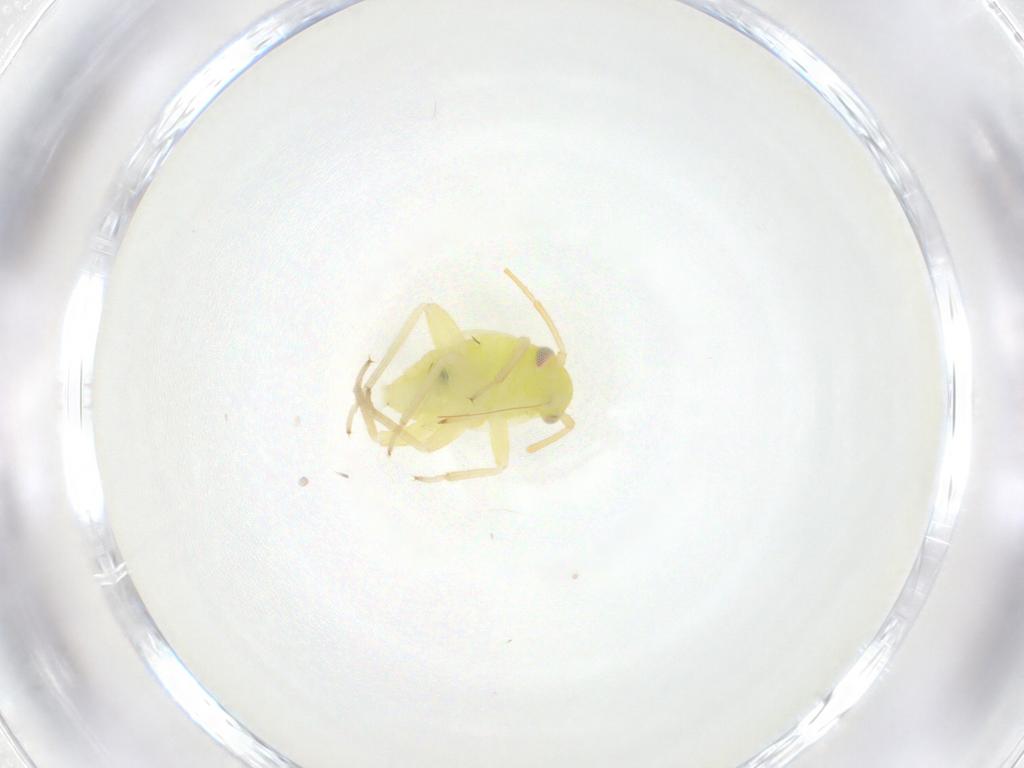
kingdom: Animalia
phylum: Arthropoda
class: Insecta
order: Hemiptera
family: Miridae
